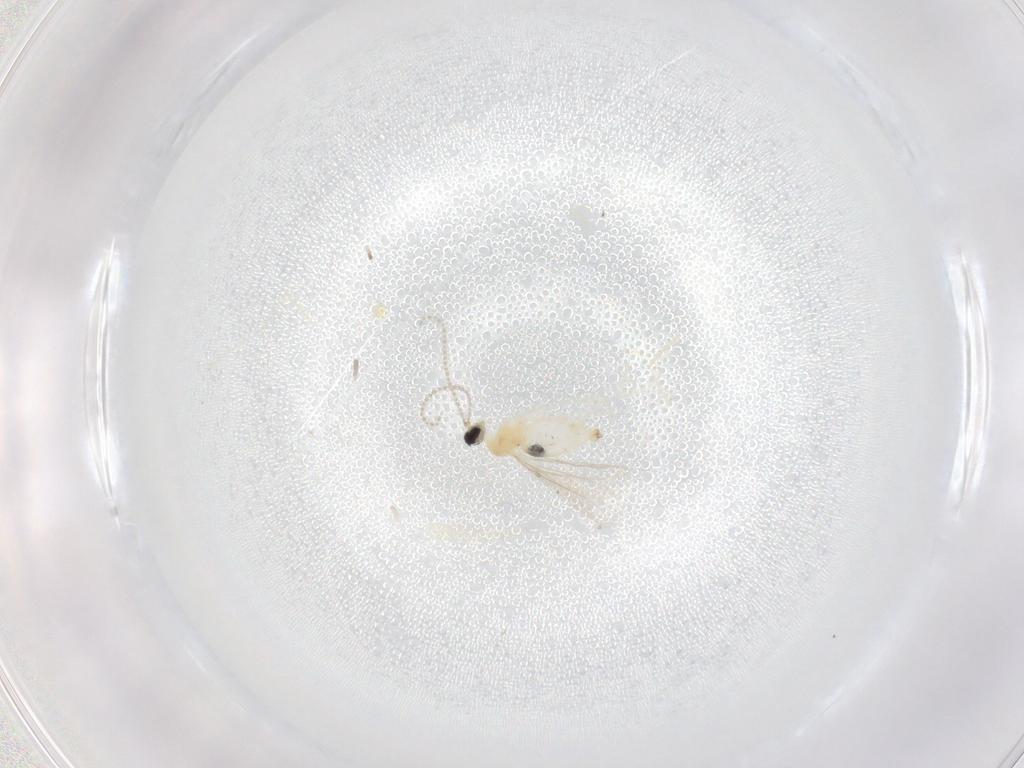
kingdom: Animalia
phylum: Arthropoda
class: Insecta
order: Diptera
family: Cecidomyiidae
